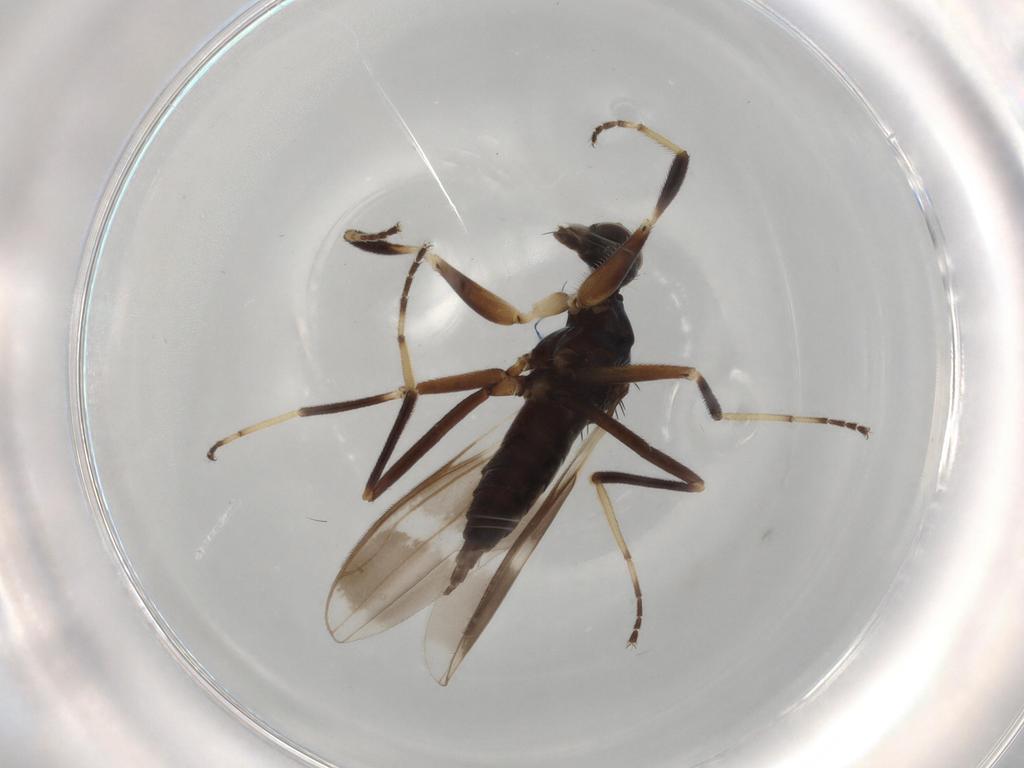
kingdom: Animalia
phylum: Arthropoda
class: Insecta
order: Diptera
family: Hybotidae
